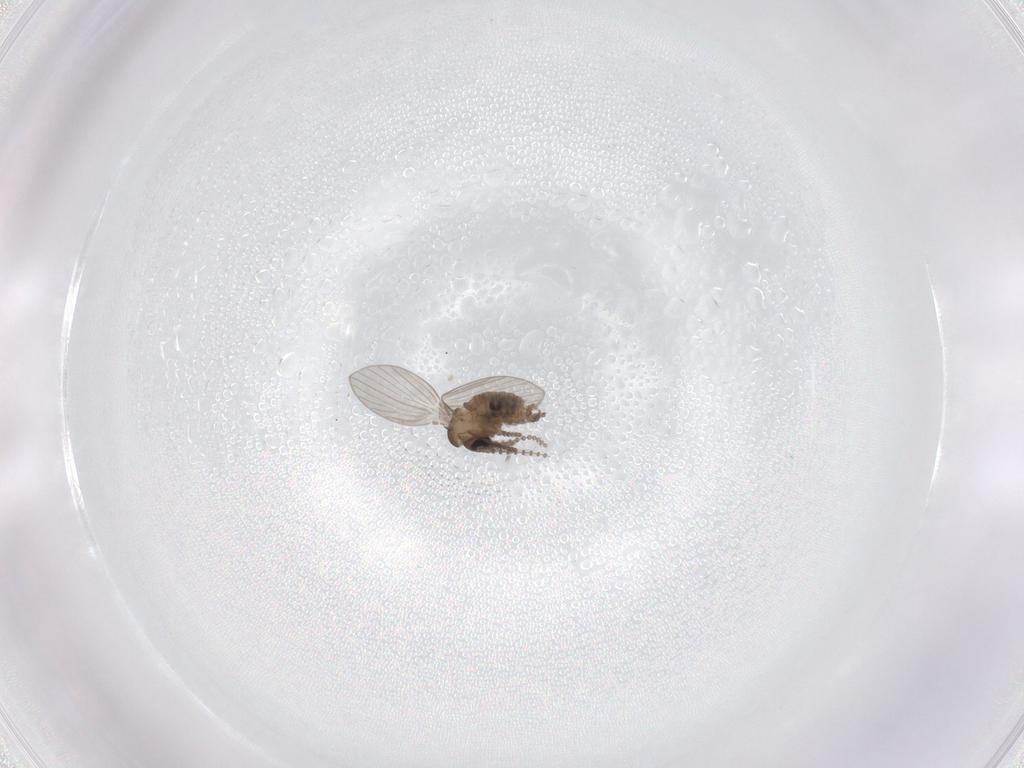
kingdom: Animalia
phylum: Arthropoda
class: Insecta
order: Diptera
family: Psychodidae
